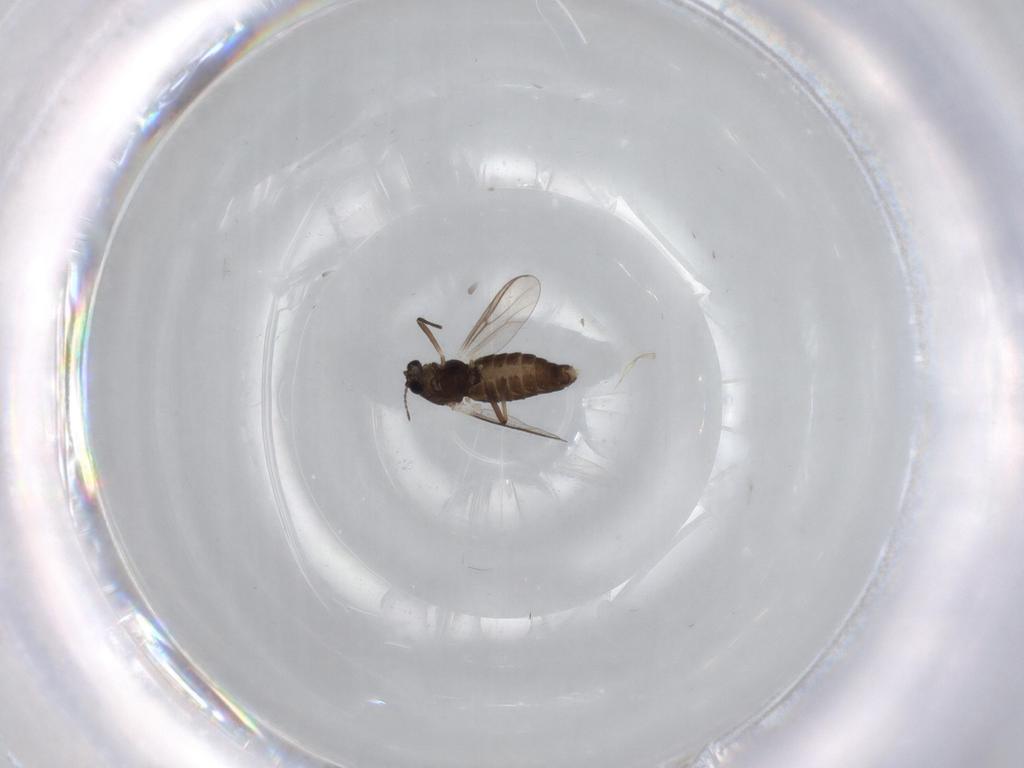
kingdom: Animalia
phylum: Arthropoda
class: Insecta
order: Diptera
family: Chironomidae
